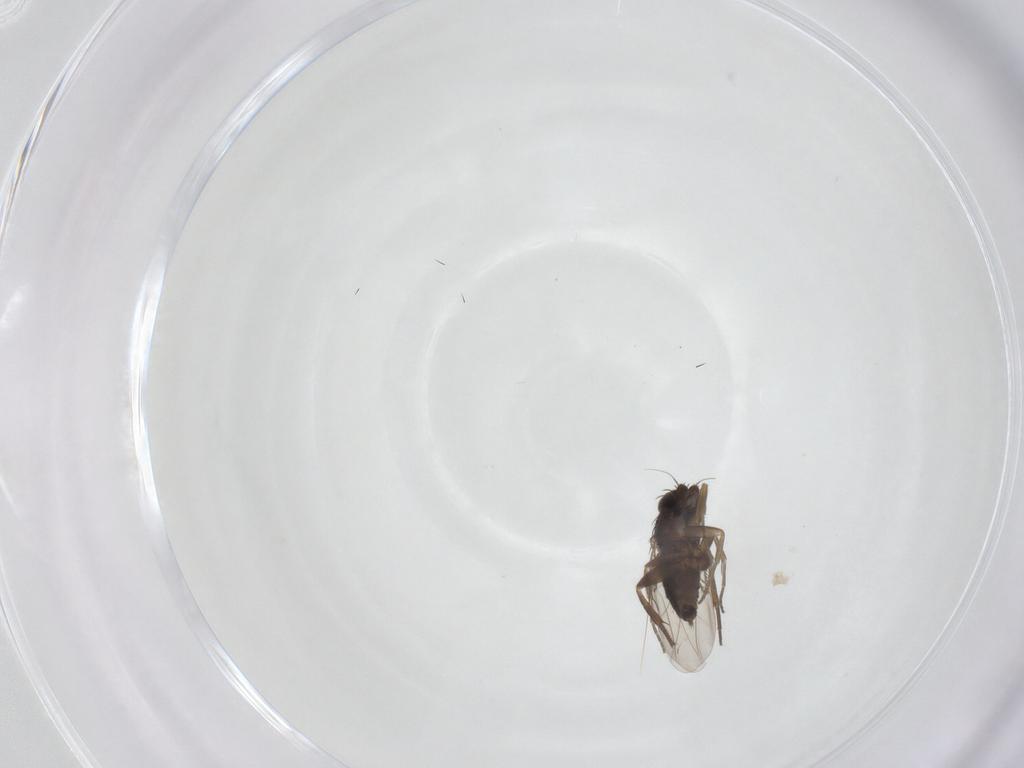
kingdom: Animalia
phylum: Arthropoda
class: Insecta
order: Diptera
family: Phoridae
